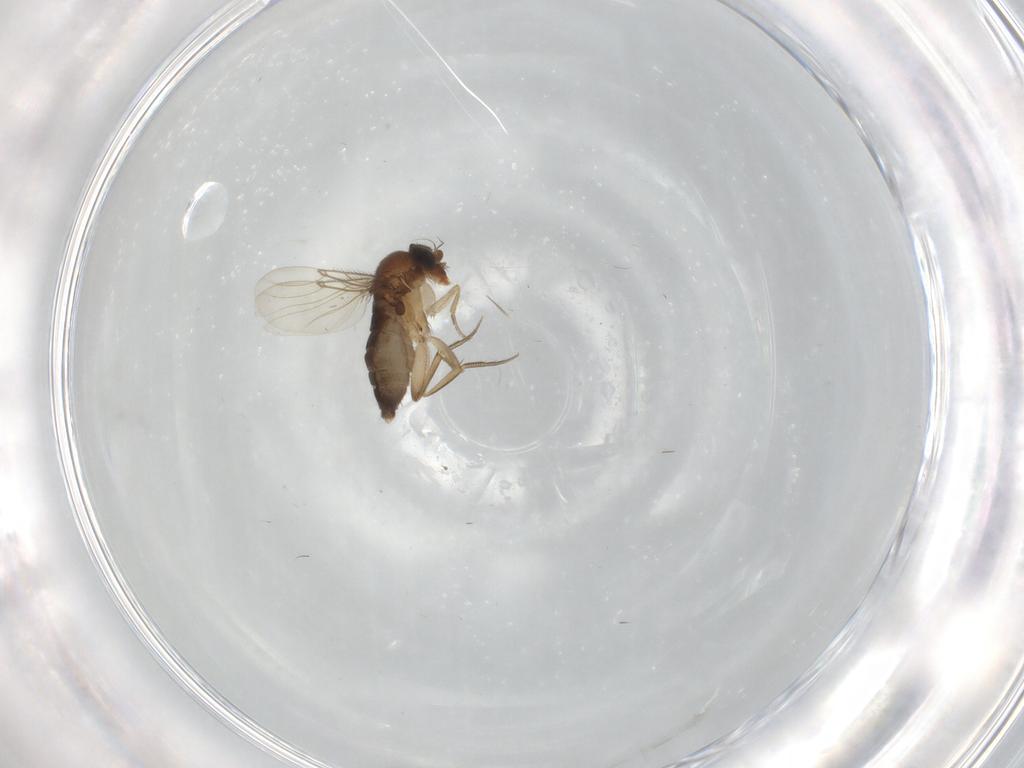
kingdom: Animalia
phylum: Arthropoda
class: Insecta
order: Diptera
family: Phoridae
